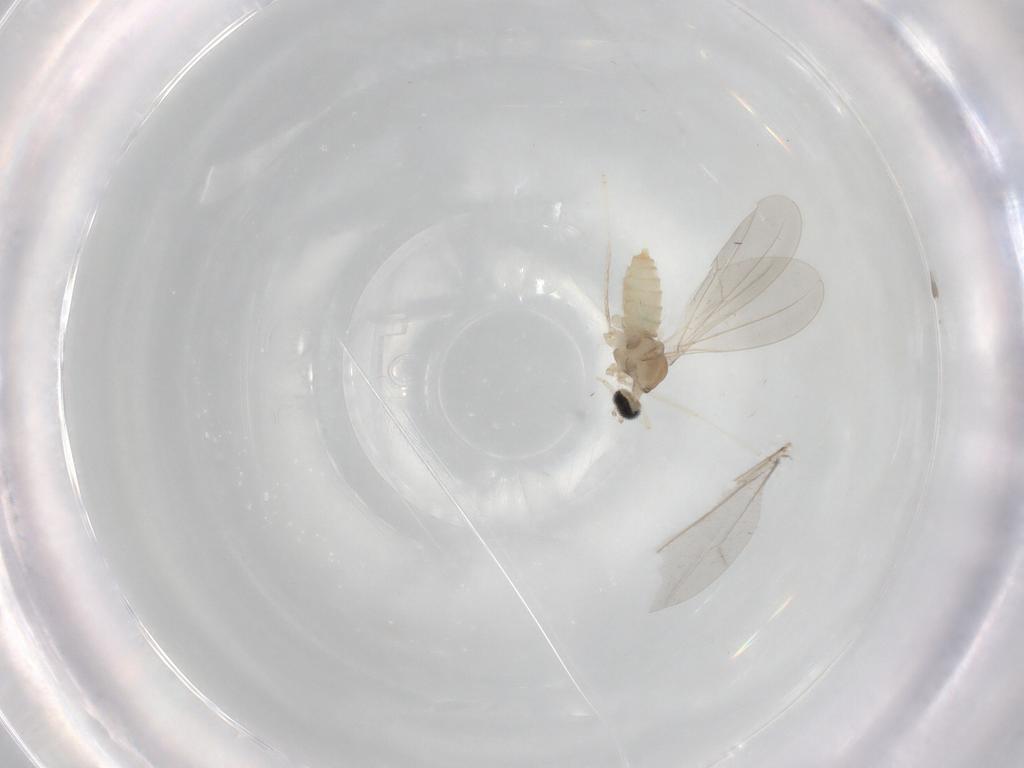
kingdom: Animalia
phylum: Arthropoda
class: Insecta
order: Diptera
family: Cecidomyiidae
